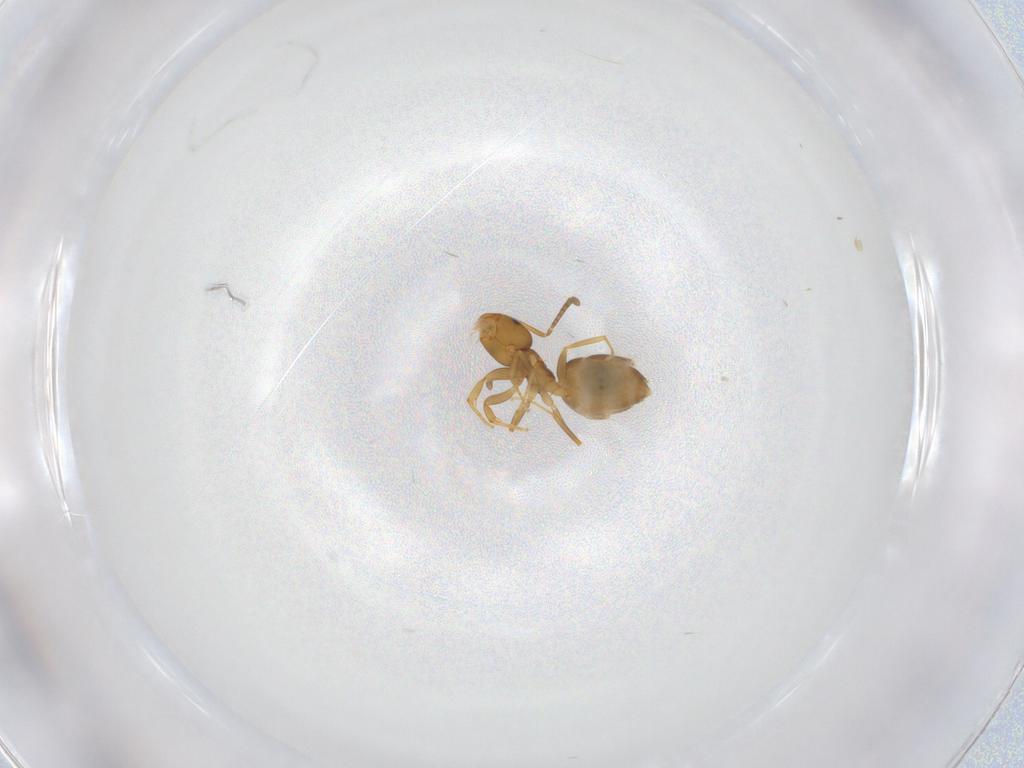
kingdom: Animalia
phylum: Arthropoda
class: Insecta
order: Hymenoptera
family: Formicidae
